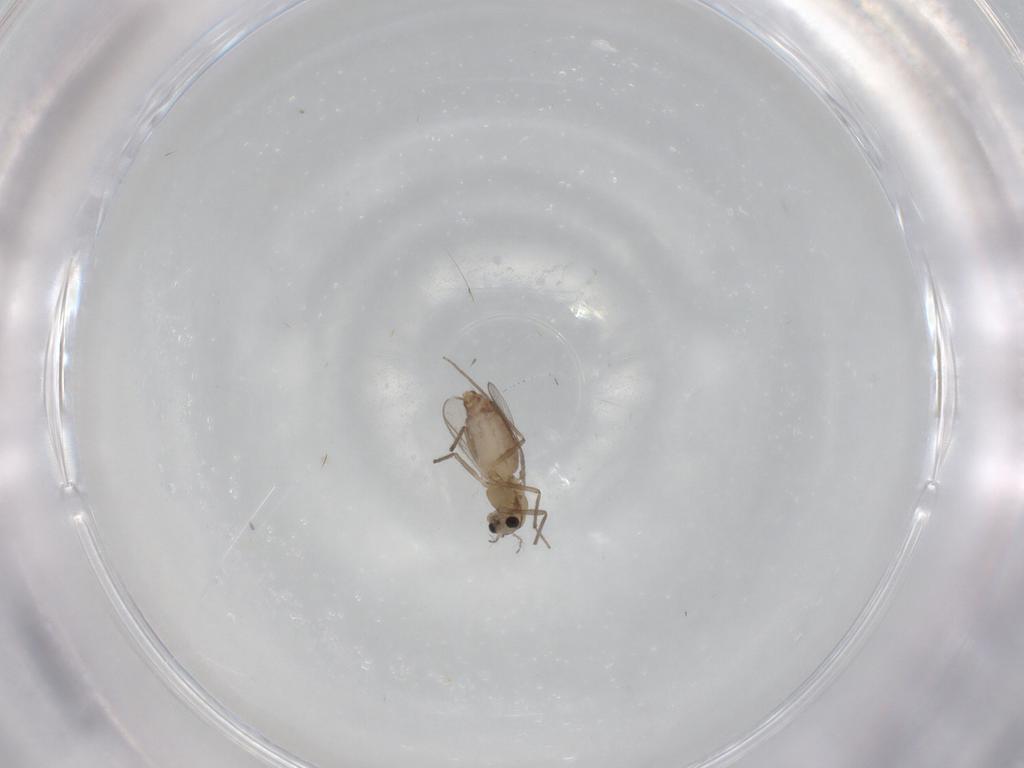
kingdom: Animalia
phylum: Arthropoda
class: Insecta
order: Diptera
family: Chironomidae
